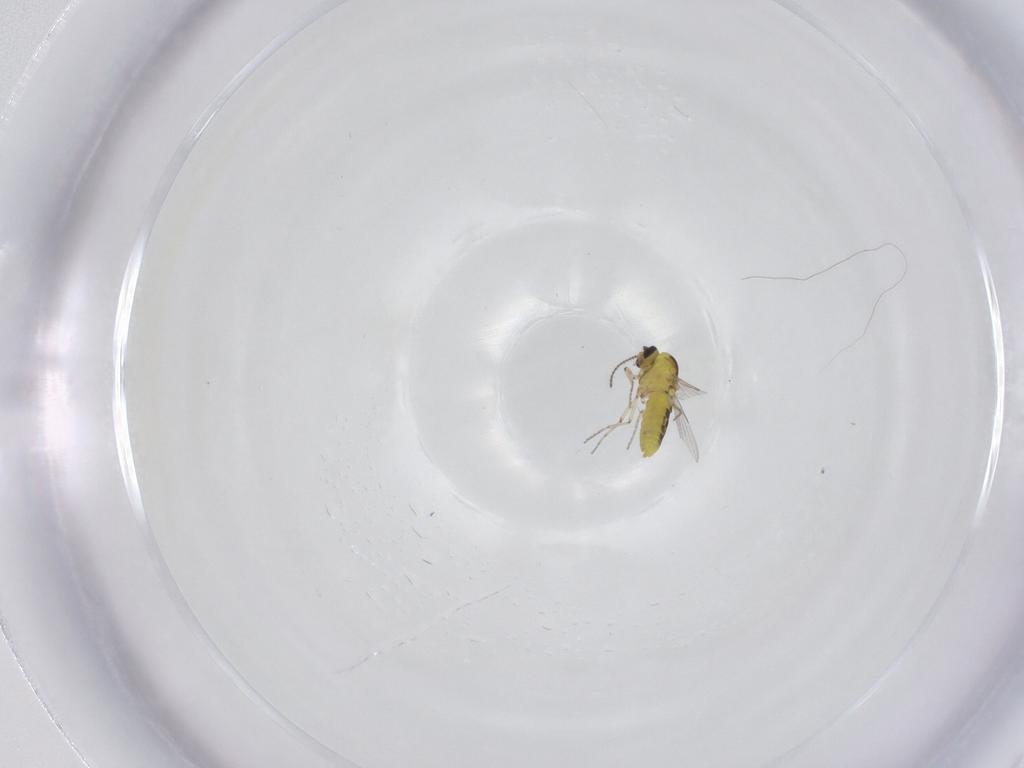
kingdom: Animalia
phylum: Arthropoda
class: Insecta
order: Diptera
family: Ceratopogonidae
